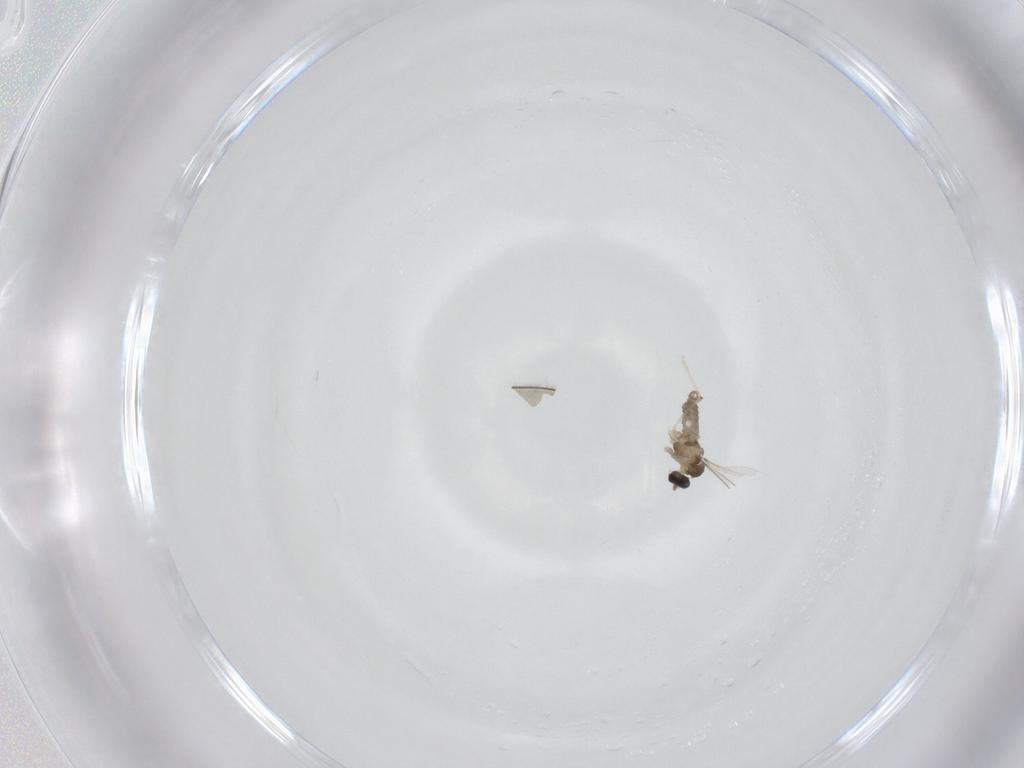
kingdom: Animalia
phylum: Arthropoda
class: Insecta
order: Diptera
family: Cecidomyiidae
